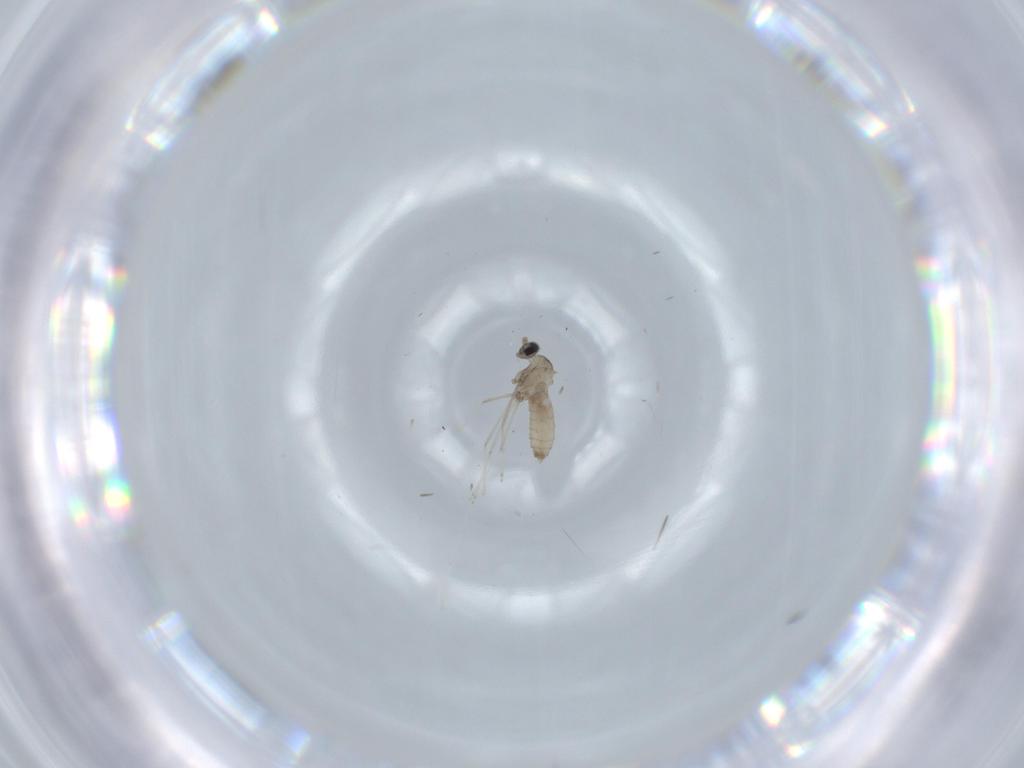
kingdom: Animalia
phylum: Arthropoda
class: Insecta
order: Diptera
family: Cecidomyiidae
